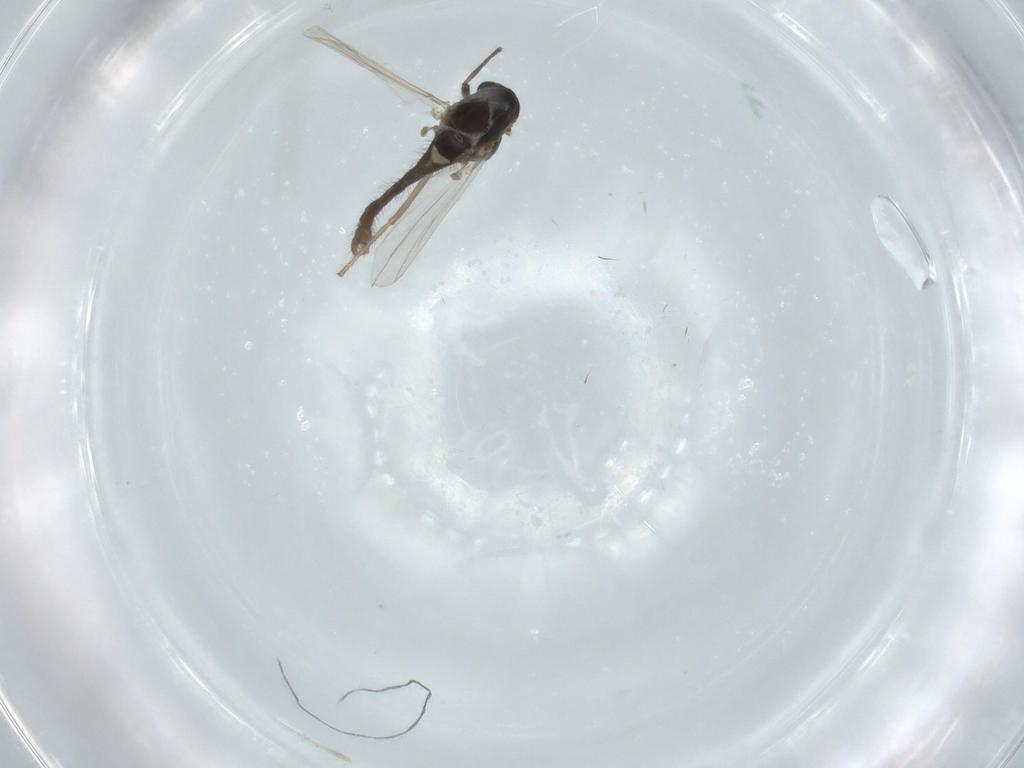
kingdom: Animalia
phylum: Arthropoda
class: Insecta
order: Diptera
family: Chironomidae
